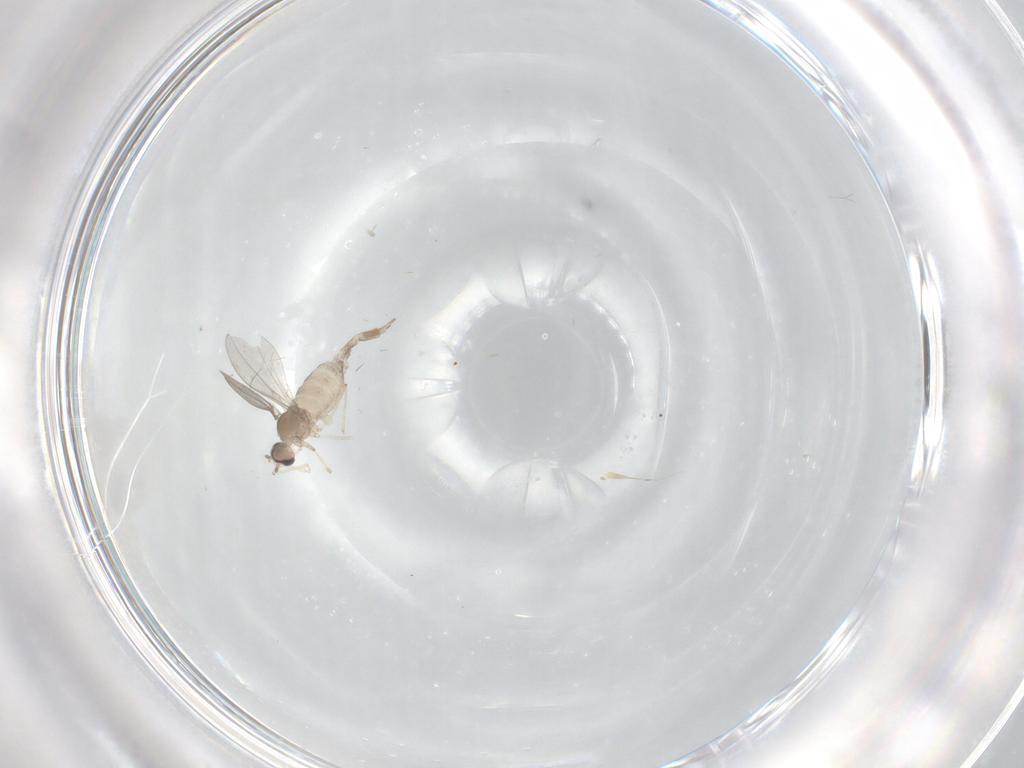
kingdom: Animalia
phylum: Arthropoda
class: Insecta
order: Diptera
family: Cecidomyiidae
